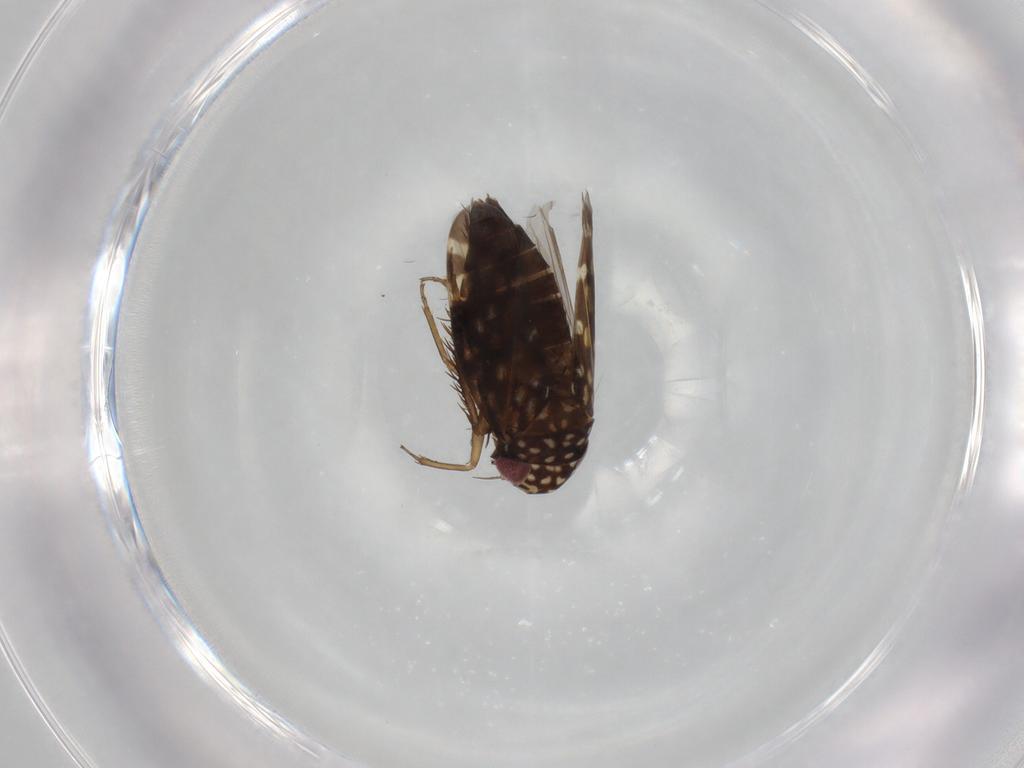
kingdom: Animalia
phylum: Arthropoda
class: Insecta
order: Hemiptera
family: Cicadellidae
